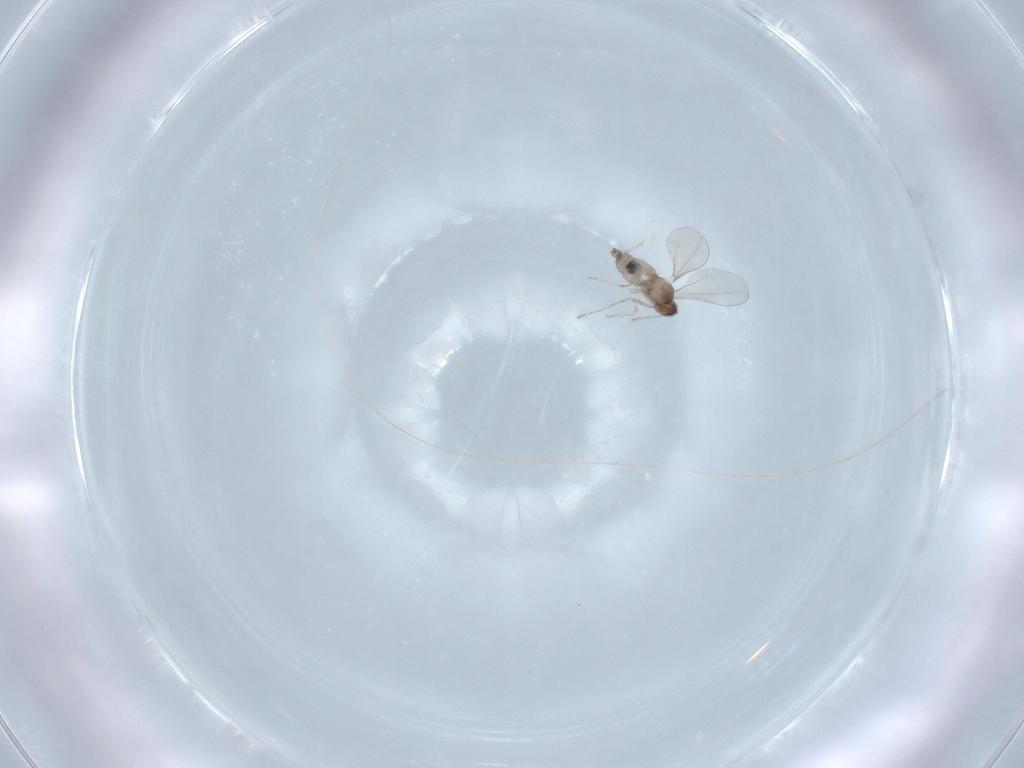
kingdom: Animalia
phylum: Arthropoda
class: Insecta
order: Diptera
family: Cecidomyiidae
